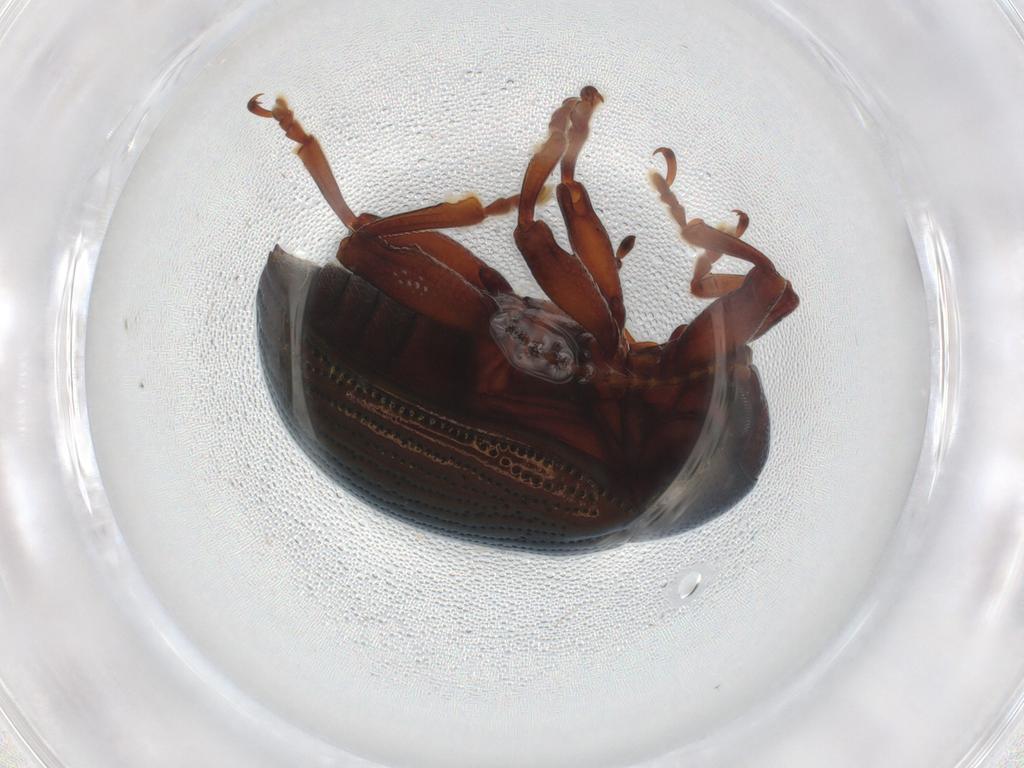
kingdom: Animalia
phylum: Arthropoda
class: Insecta
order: Coleoptera
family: Chrysomelidae
